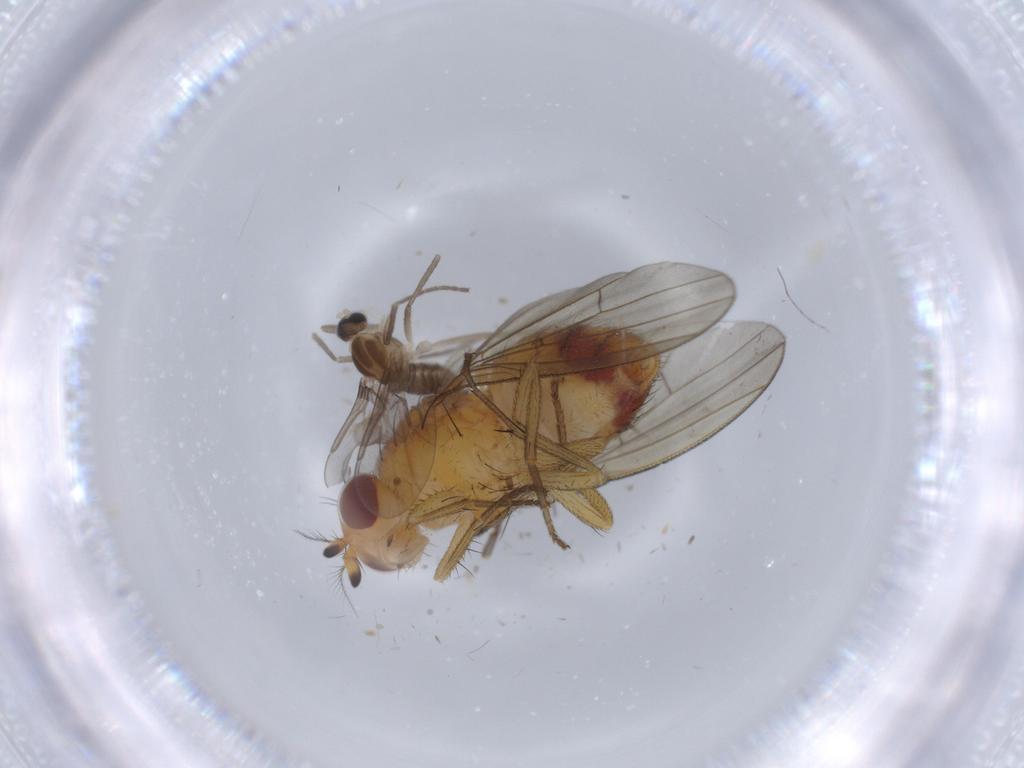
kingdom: Animalia
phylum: Arthropoda
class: Insecta
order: Diptera
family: Lauxaniidae
